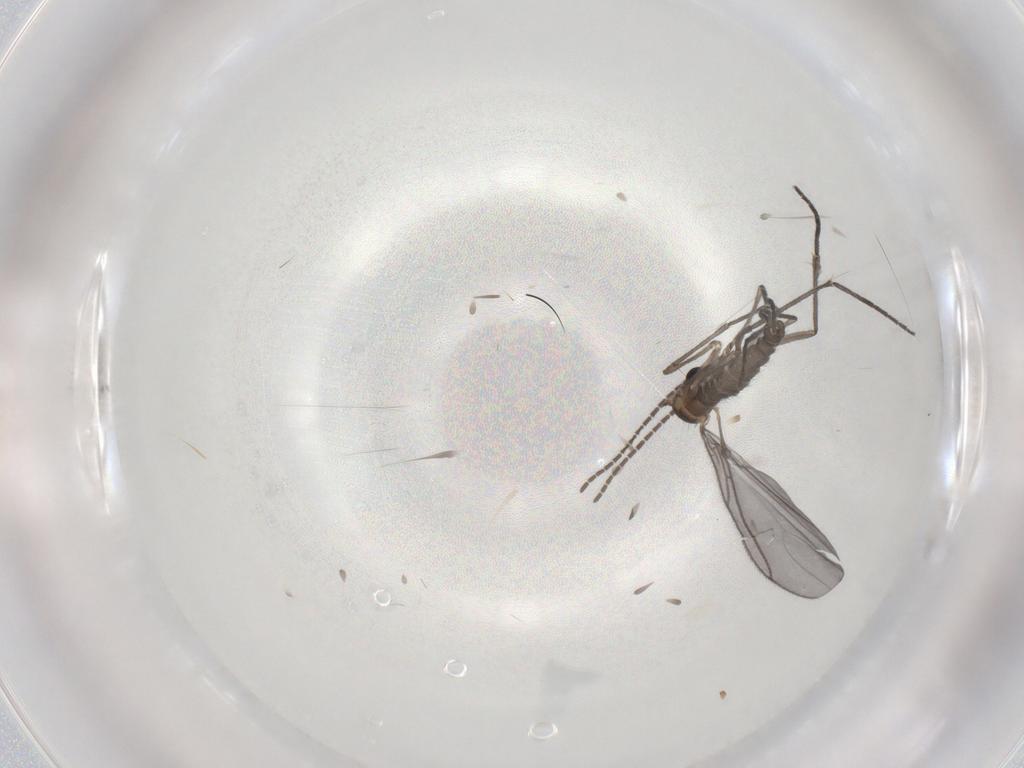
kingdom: Animalia
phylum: Arthropoda
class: Insecta
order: Diptera
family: Sciaridae
